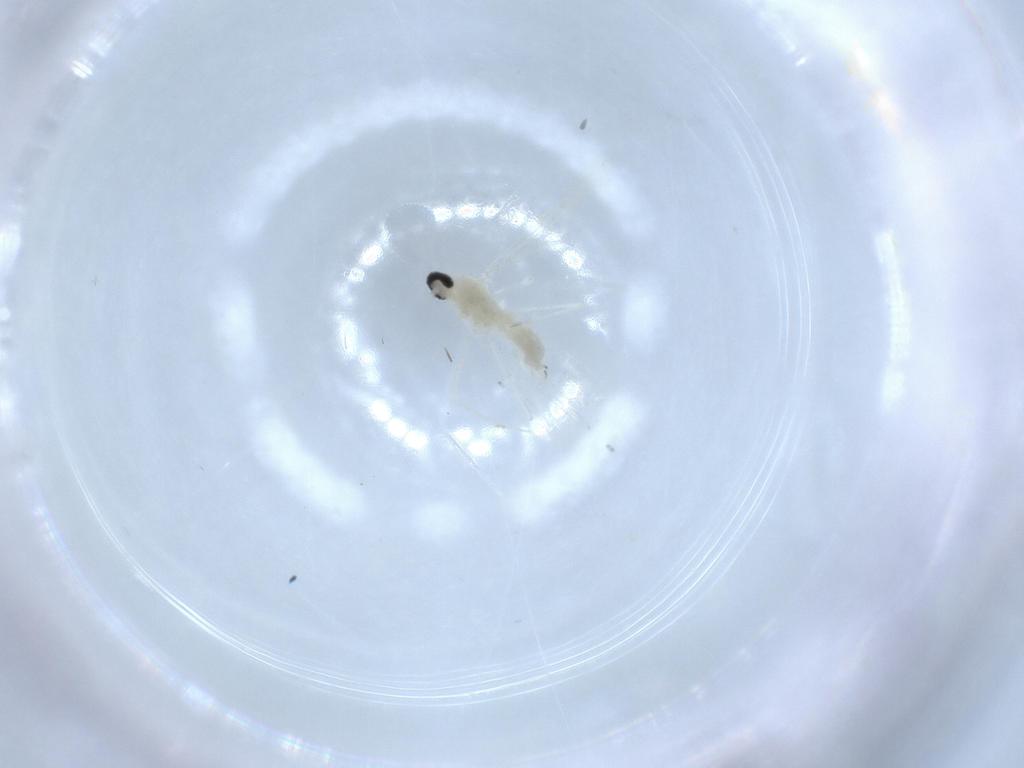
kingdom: Animalia
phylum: Arthropoda
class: Insecta
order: Diptera
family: Cecidomyiidae
